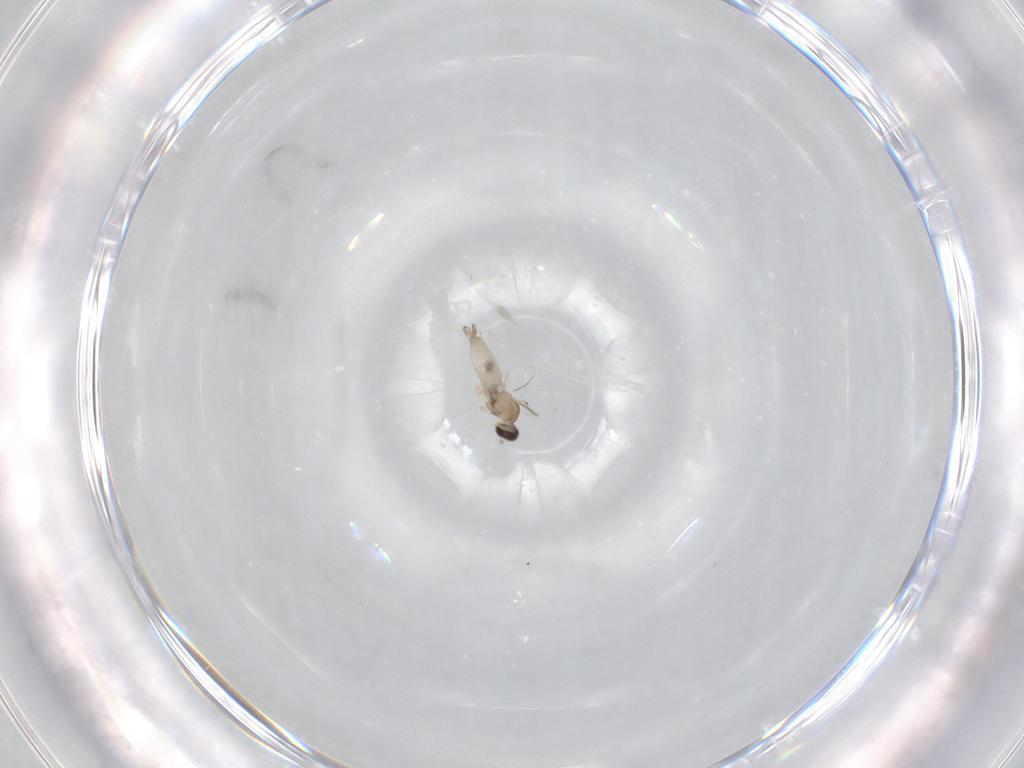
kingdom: Animalia
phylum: Arthropoda
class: Insecta
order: Diptera
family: Cecidomyiidae
